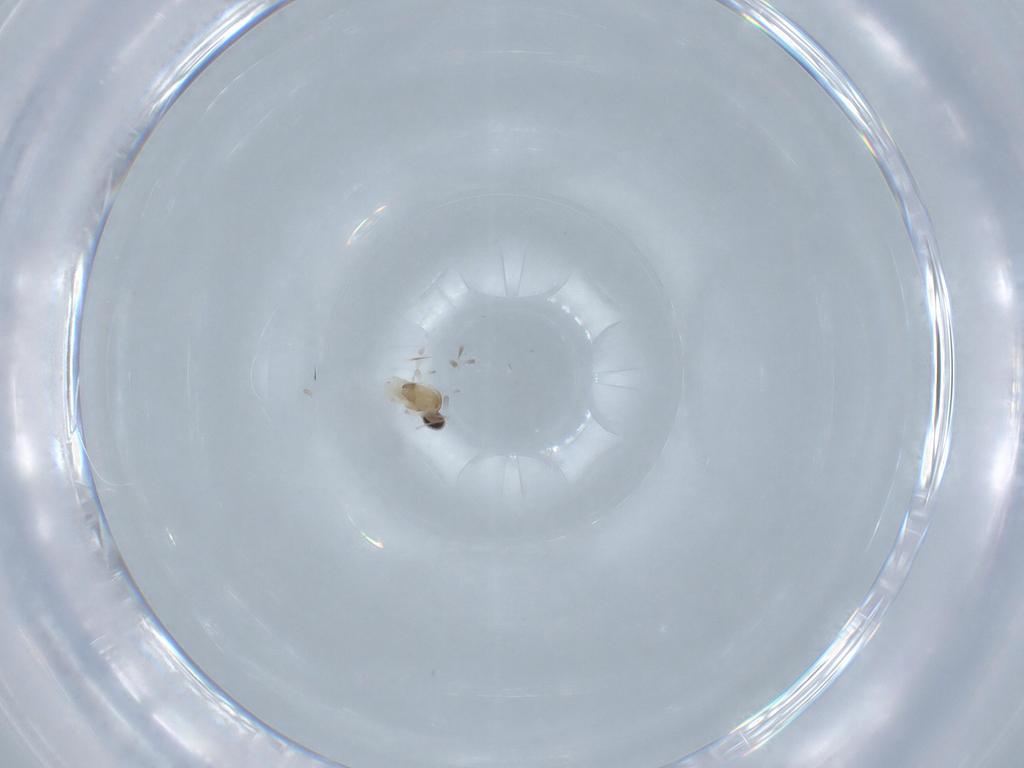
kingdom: Animalia
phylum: Arthropoda
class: Insecta
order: Diptera
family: Cecidomyiidae
